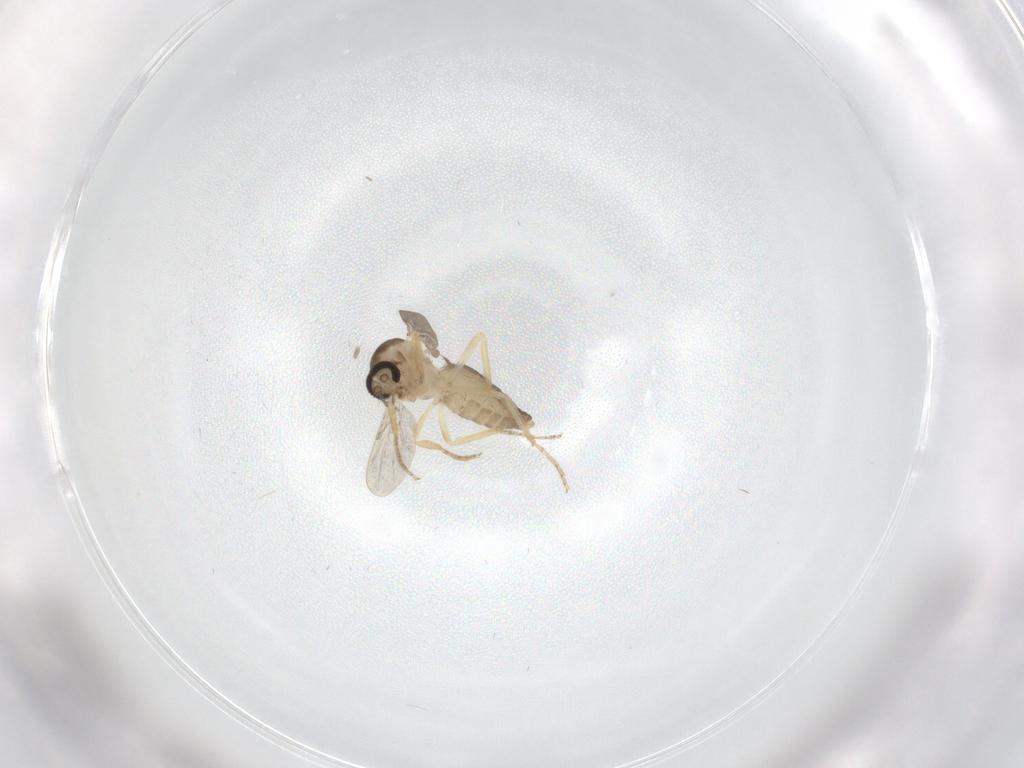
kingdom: Animalia
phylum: Arthropoda
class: Insecta
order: Diptera
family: Ceratopogonidae
